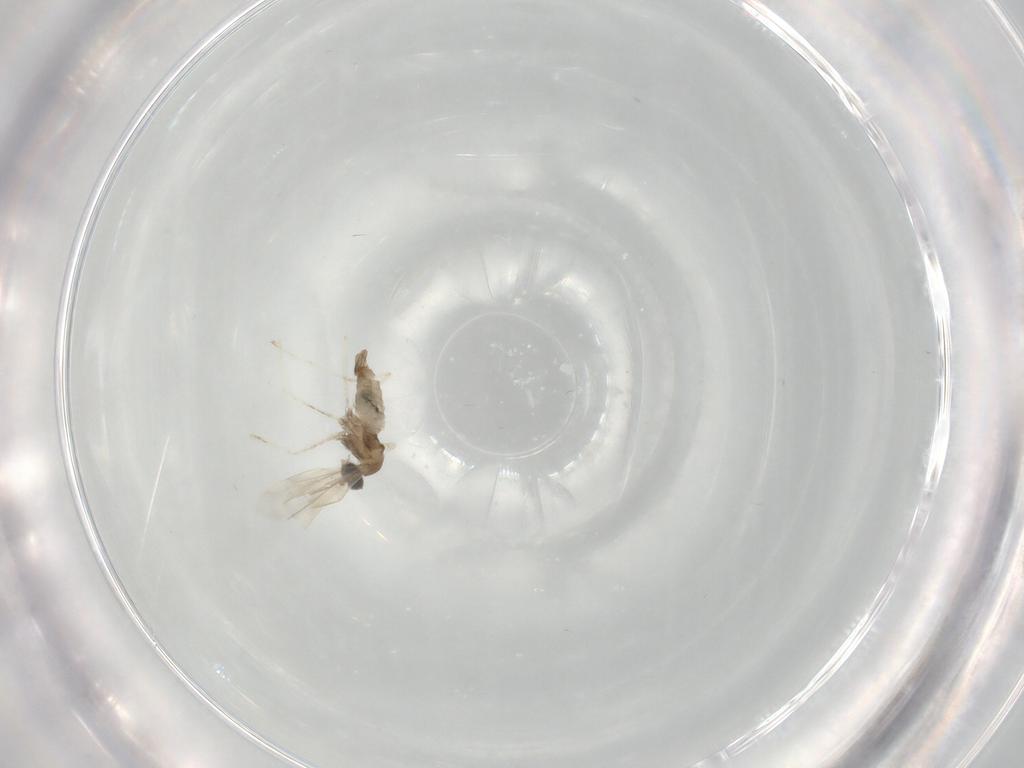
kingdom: Animalia
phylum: Arthropoda
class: Insecta
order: Diptera
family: Cecidomyiidae
